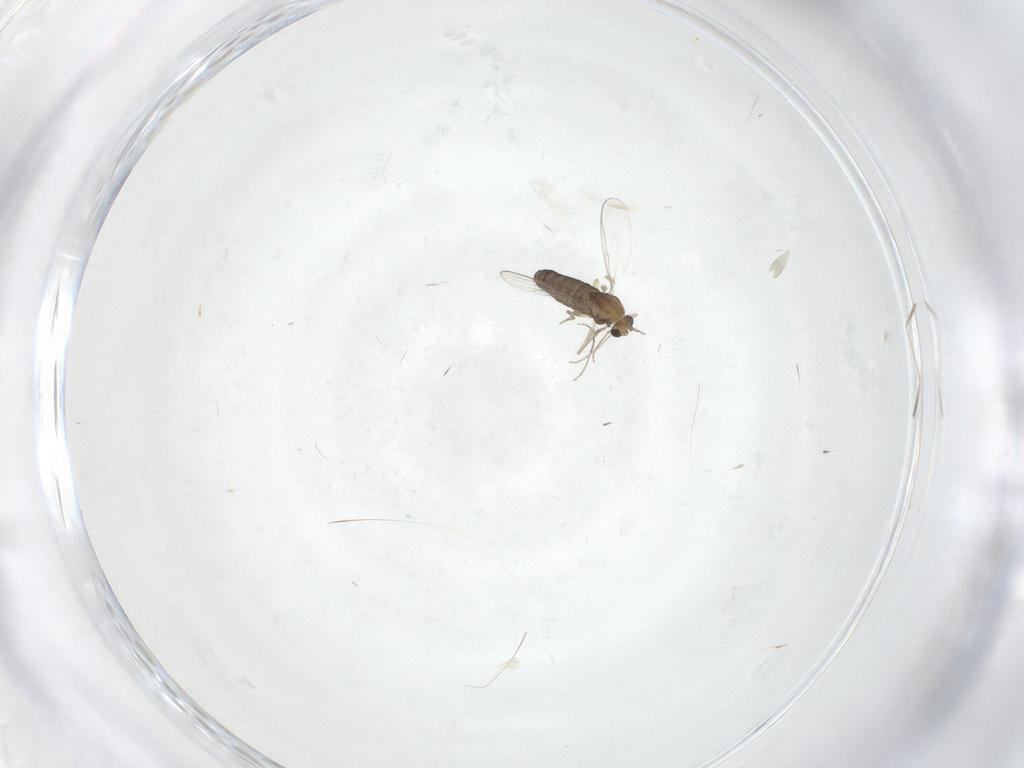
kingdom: Animalia
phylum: Arthropoda
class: Insecta
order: Diptera
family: Cecidomyiidae
